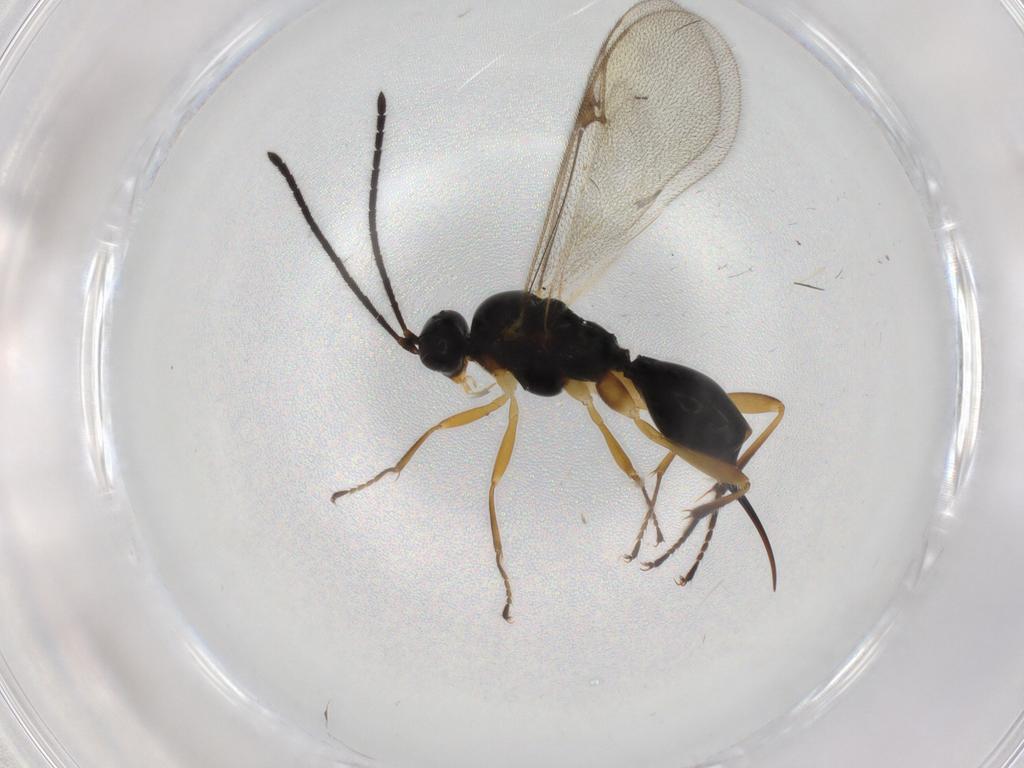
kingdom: Animalia
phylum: Arthropoda
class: Insecta
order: Hymenoptera
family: Proctotrupidae
